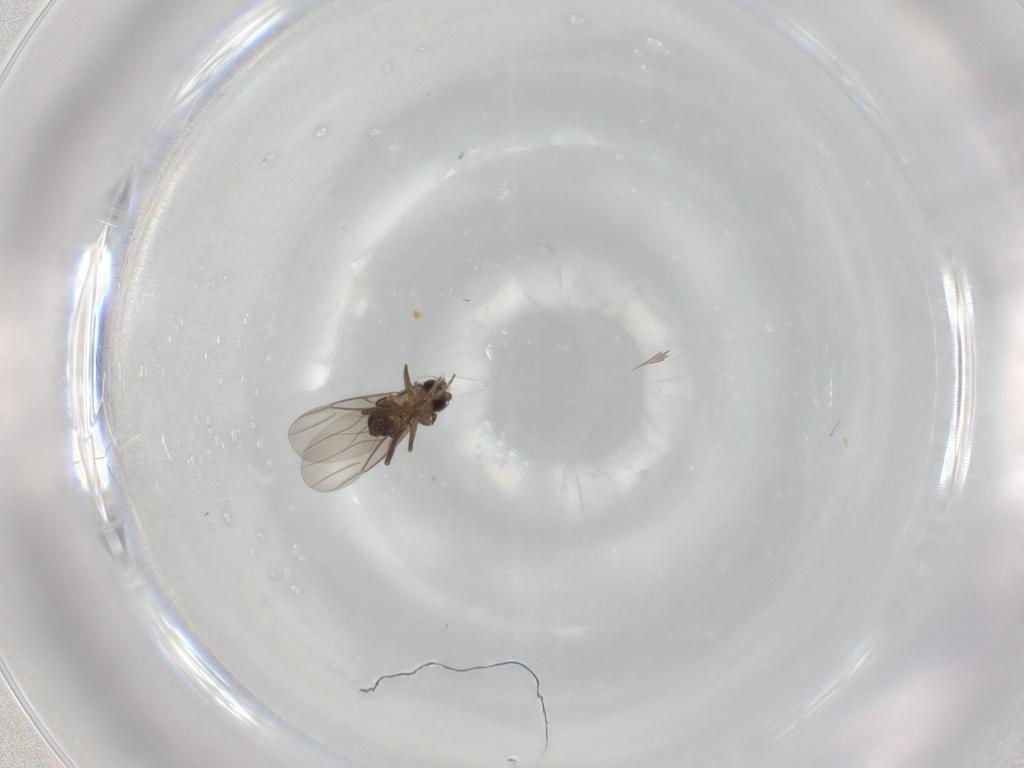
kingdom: Animalia
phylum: Arthropoda
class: Insecta
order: Diptera
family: Phoridae
